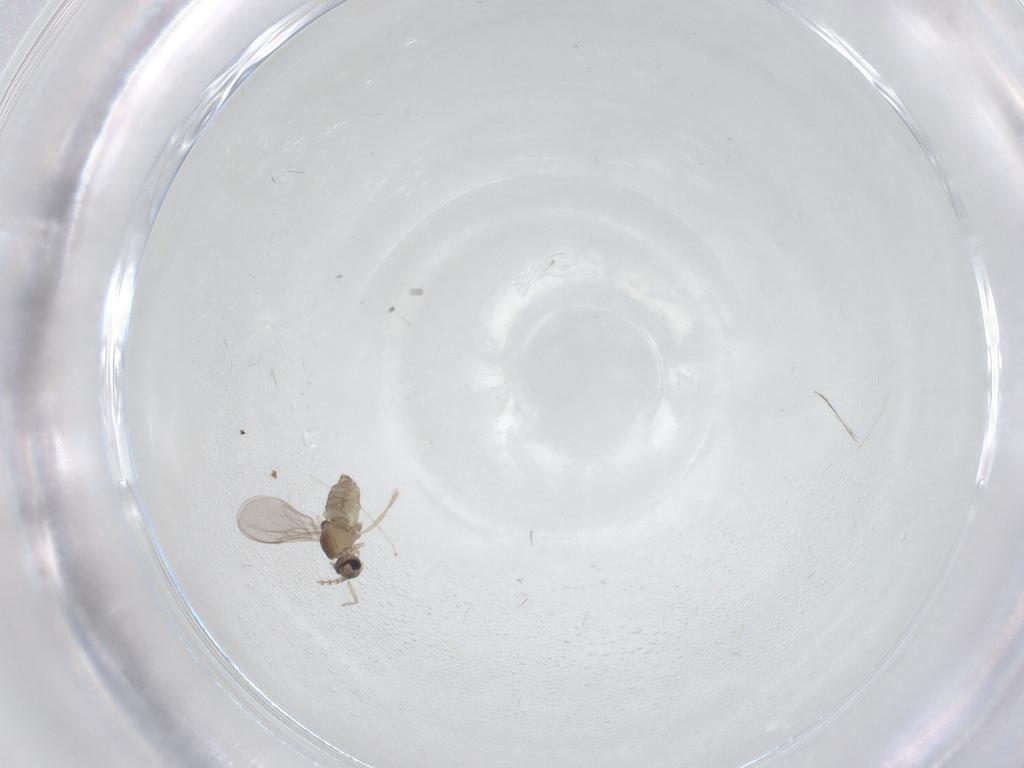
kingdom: Animalia
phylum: Arthropoda
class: Insecta
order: Diptera
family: Cecidomyiidae
